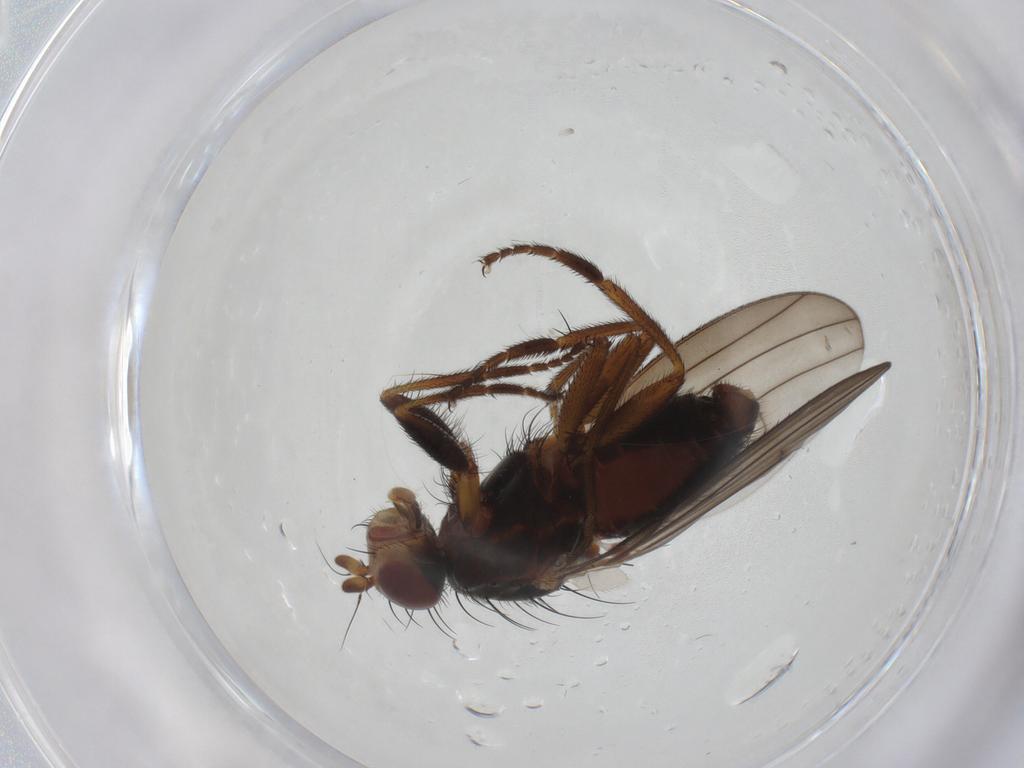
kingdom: Animalia
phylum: Arthropoda
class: Insecta
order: Diptera
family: Heleomyzidae
